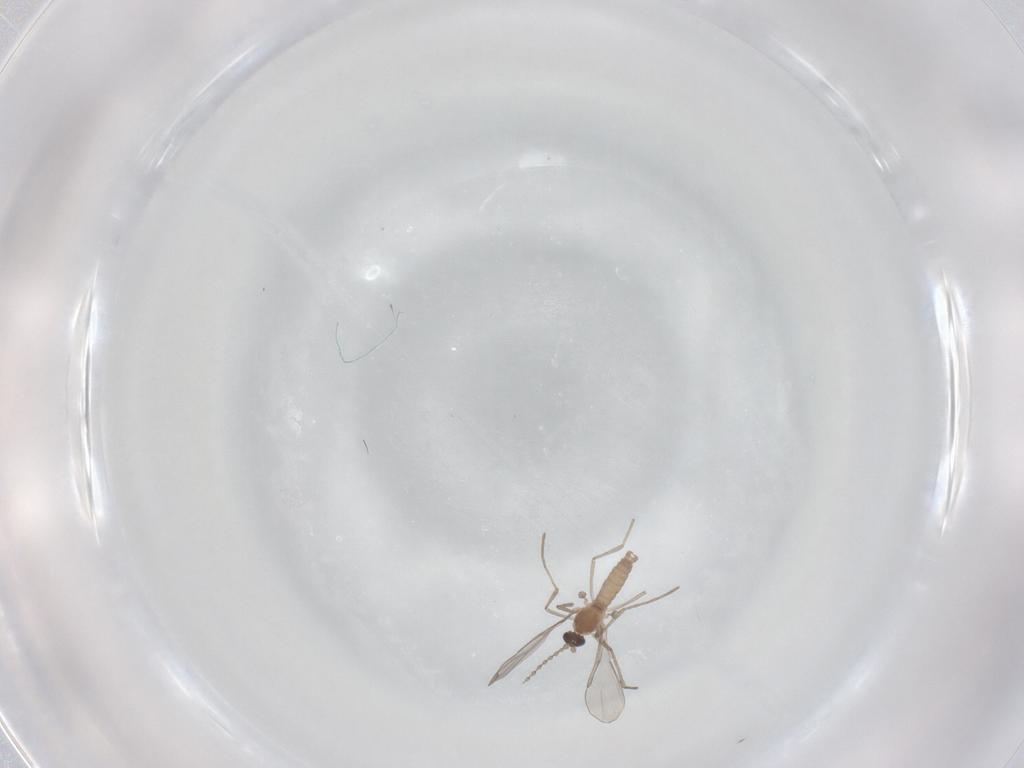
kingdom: Animalia
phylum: Arthropoda
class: Insecta
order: Diptera
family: Cecidomyiidae
